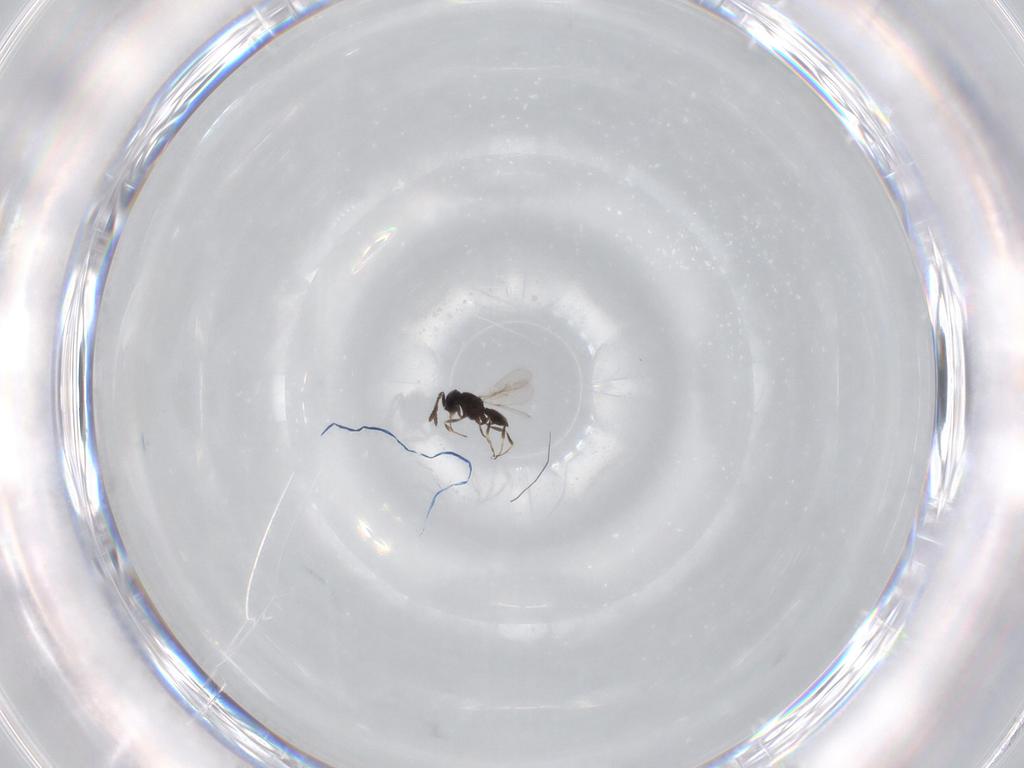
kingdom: Animalia
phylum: Arthropoda
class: Insecta
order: Hymenoptera
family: Scelionidae
